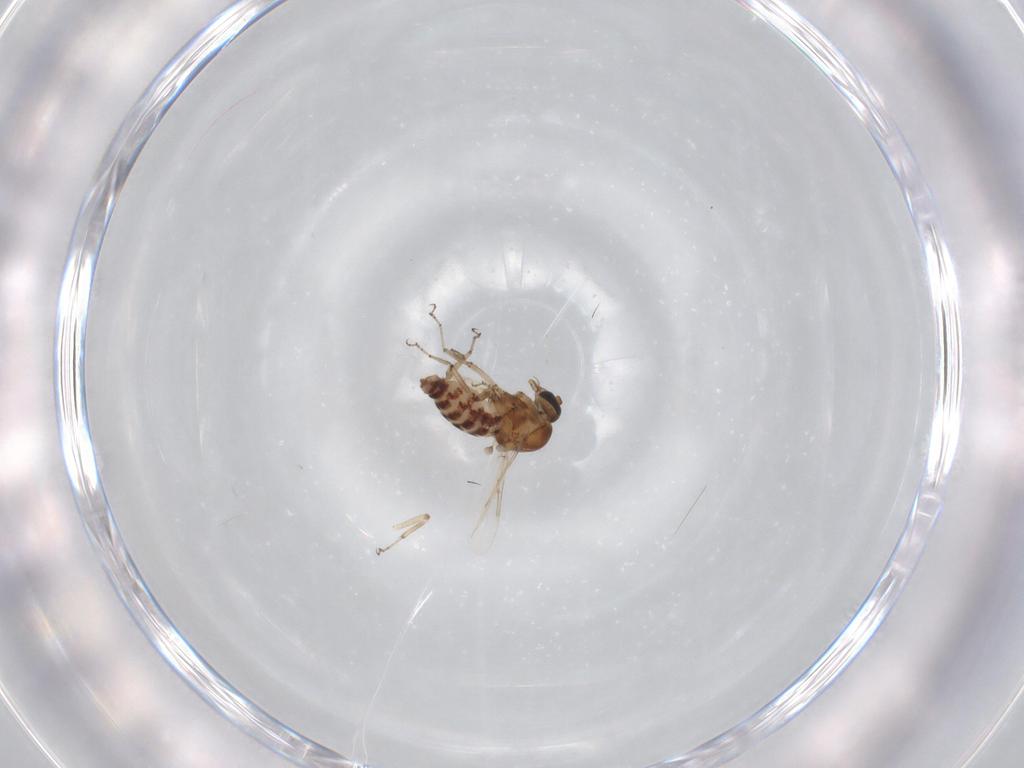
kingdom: Animalia
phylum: Arthropoda
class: Insecta
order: Diptera
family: Ceratopogonidae
